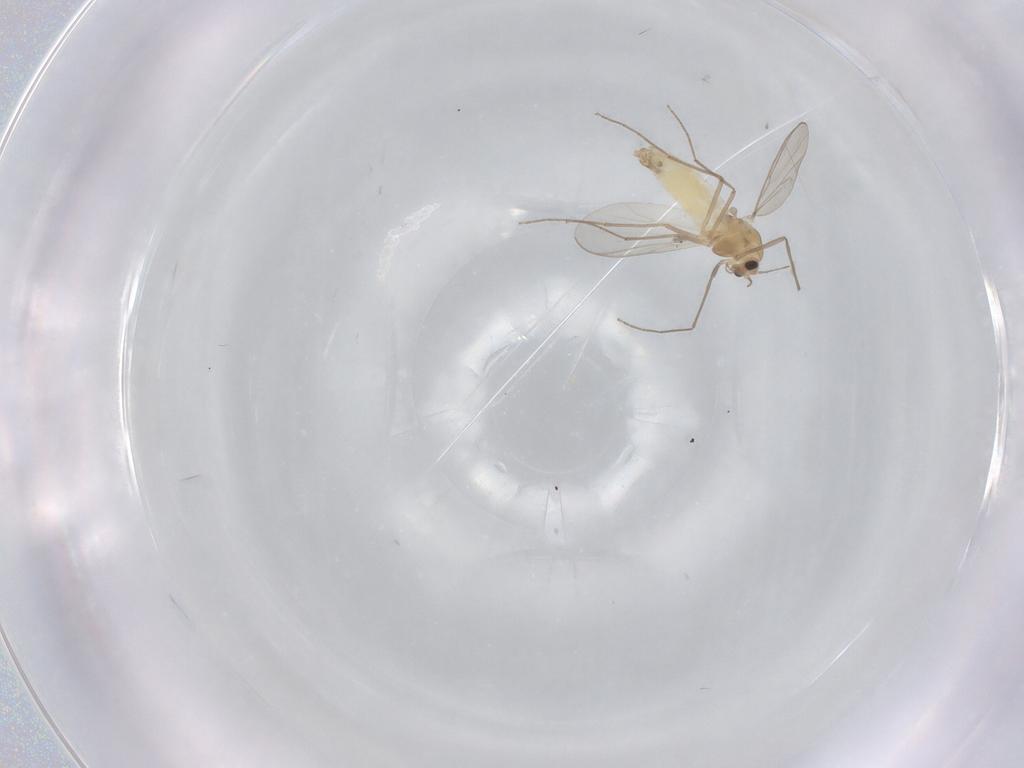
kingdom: Animalia
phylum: Arthropoda
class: Insecta
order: Diptera
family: Chironomidae
